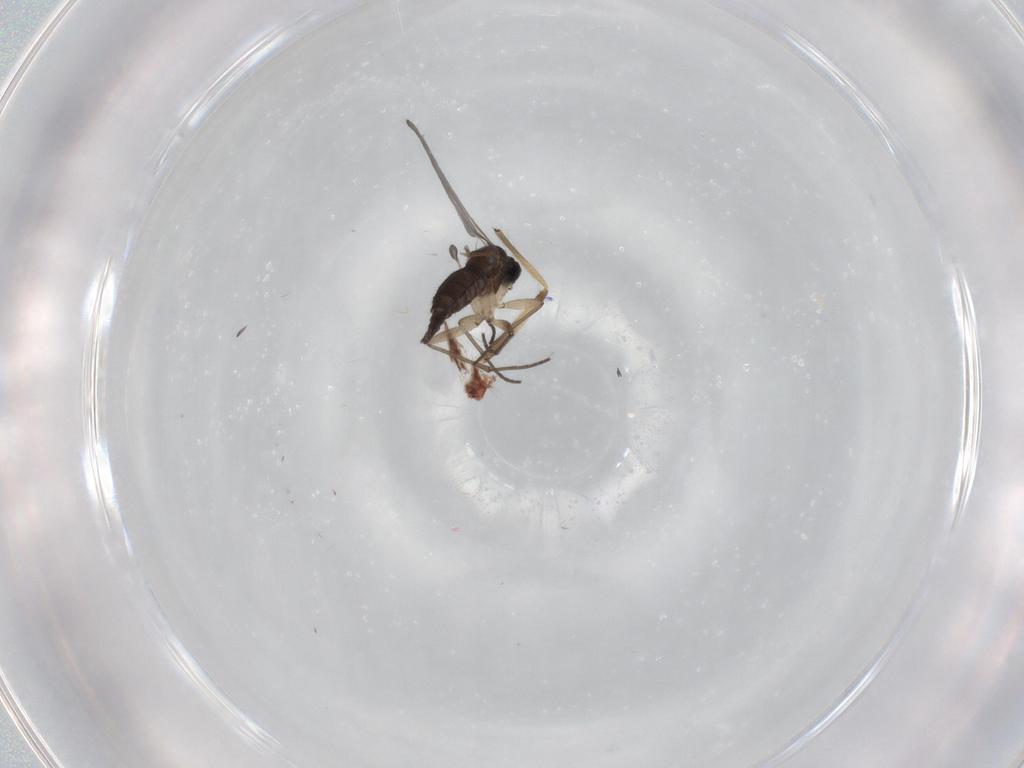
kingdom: Animalia
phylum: Arthropoda
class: Insecta
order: Diptera
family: Sciaridae
